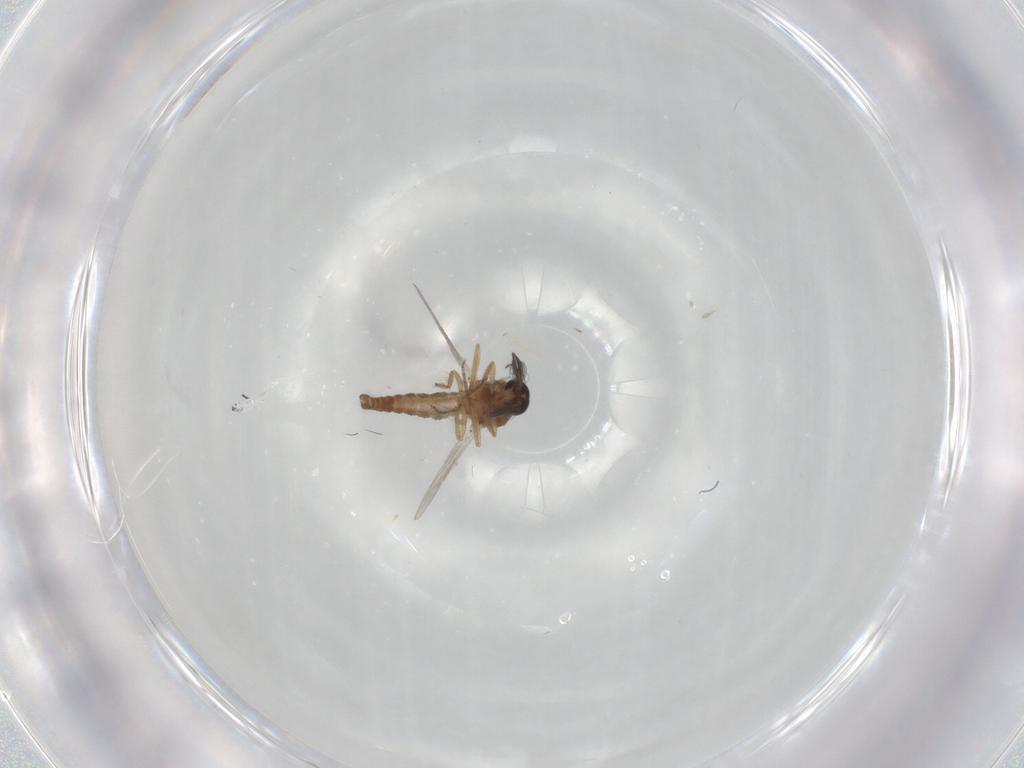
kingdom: Animalia
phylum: Arthropoda
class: Insecta
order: Diptera
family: Ceratopogonidae
